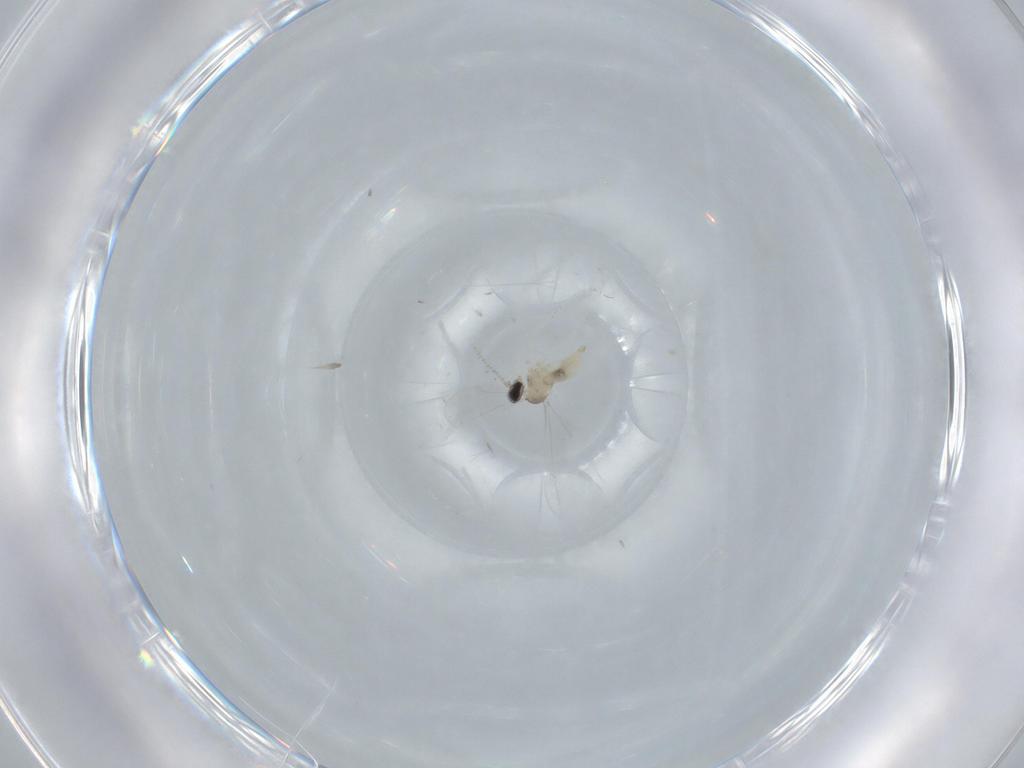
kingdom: Animalia
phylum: Arthropoda
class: Insecta
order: Diptera
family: Cecidomyiidae
